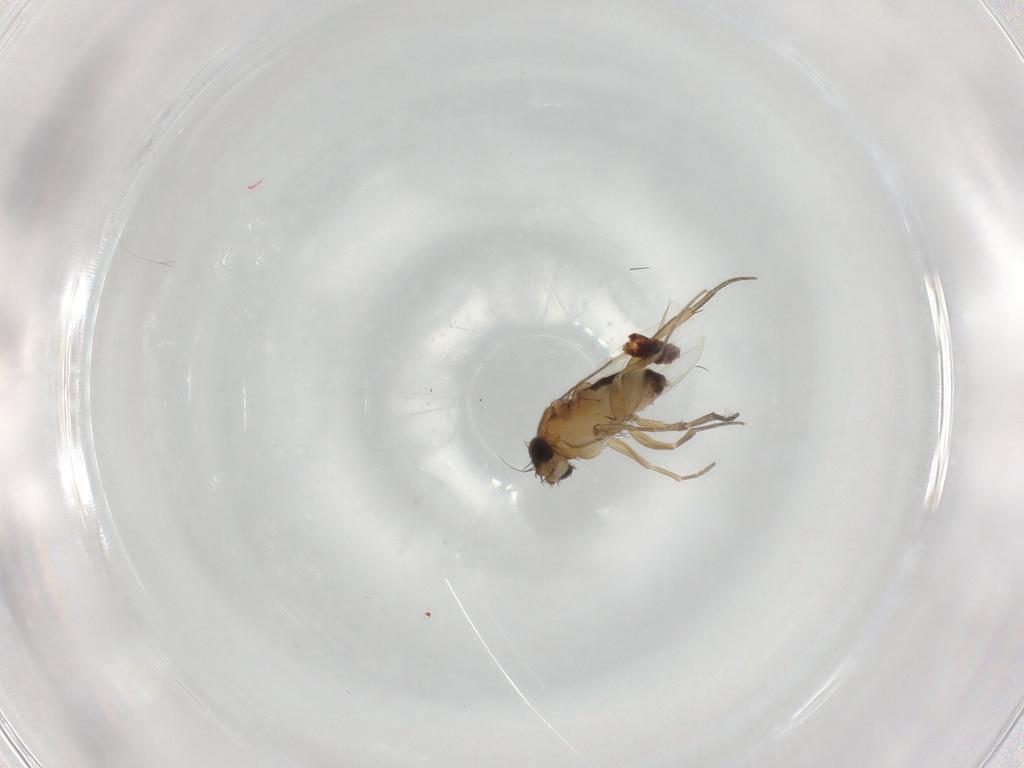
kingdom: Animalia
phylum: Arthropoda
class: Insecta
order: Diptera
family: Phoridae
